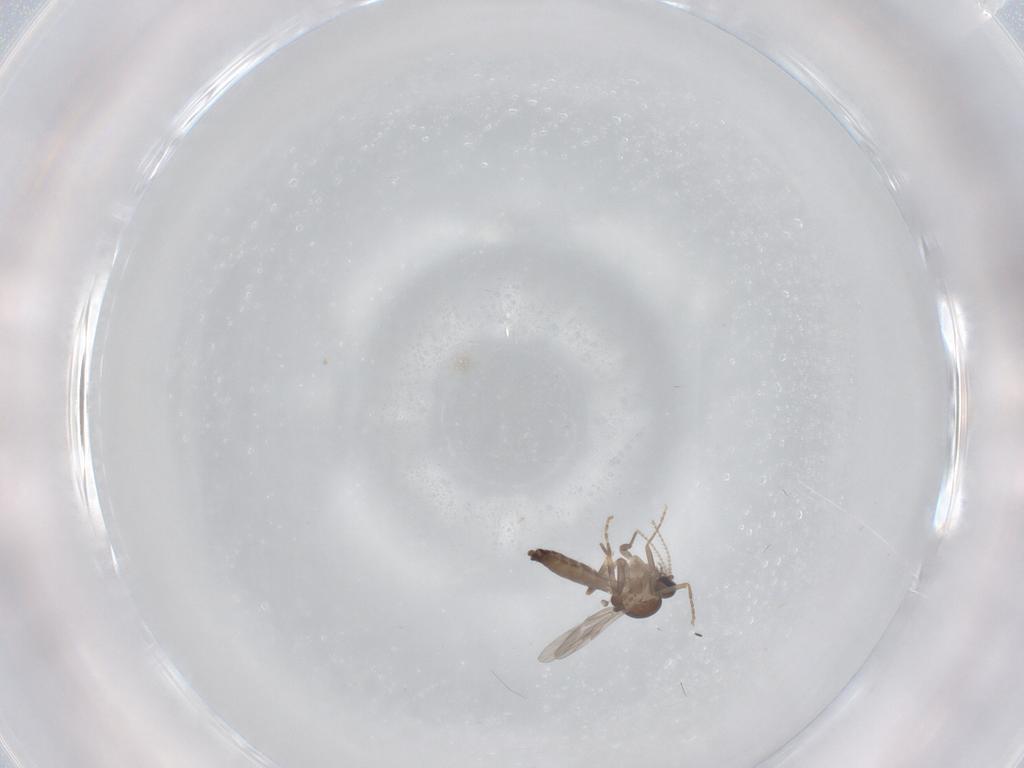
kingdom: Animalia
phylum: Arthropoda
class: Insecta
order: Diptera
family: Ceratopogonidae
